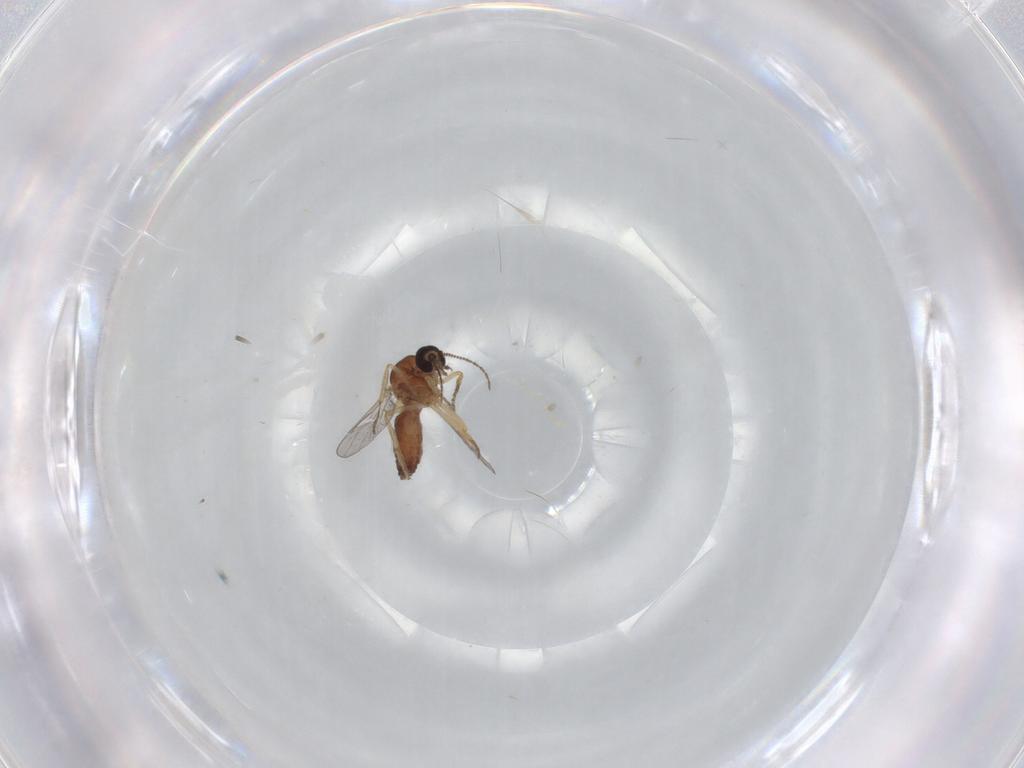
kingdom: Animalia
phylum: Arthropoda
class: Insecta
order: Diptera
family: Ceratopogonidae
